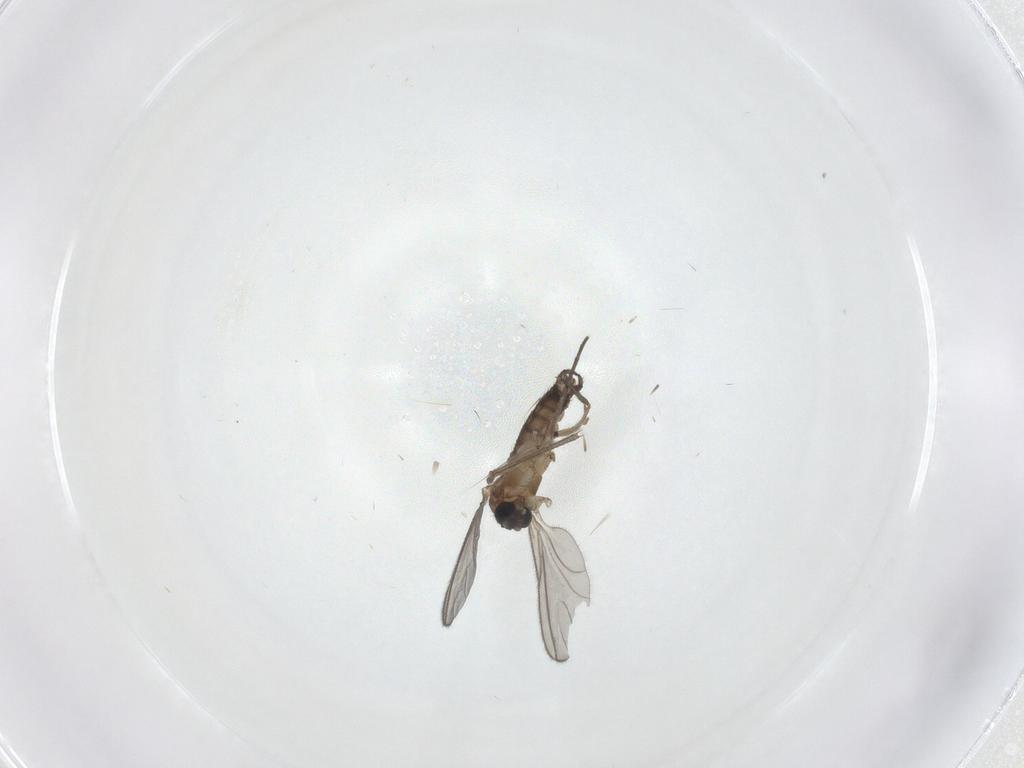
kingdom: Animalia
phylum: Arthropoda
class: Insecta
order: Diptera
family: Sciaridae
